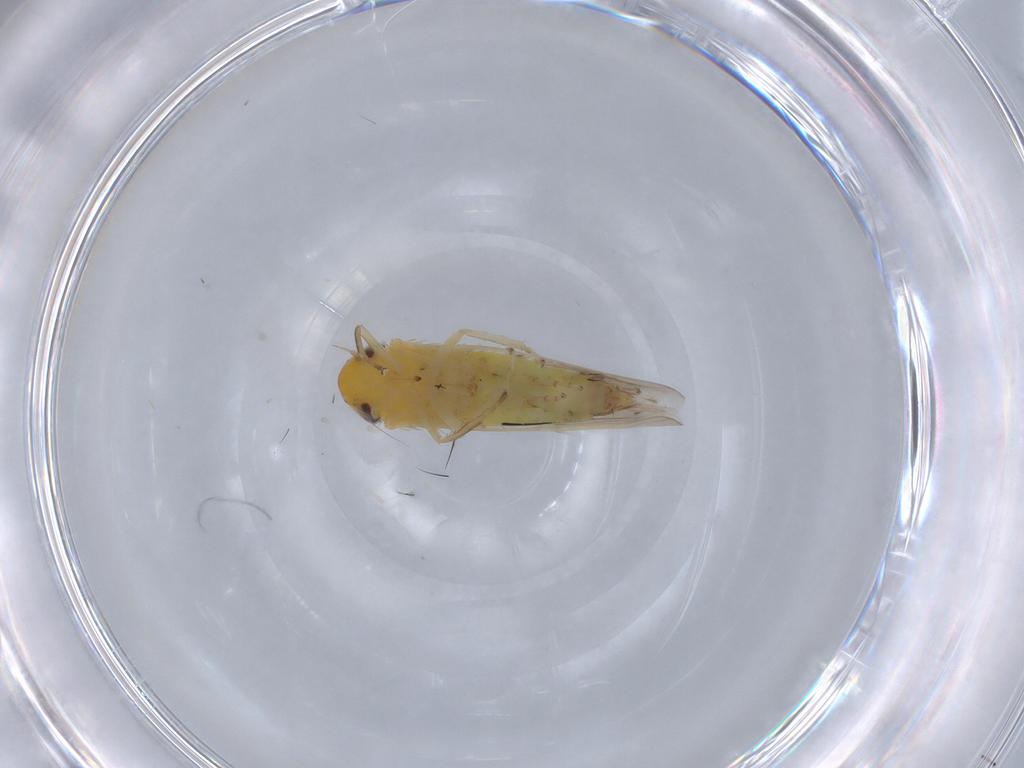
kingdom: Animalia
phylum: Arthropoda
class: Insecta
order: Hemiptera
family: Cicadellidae
